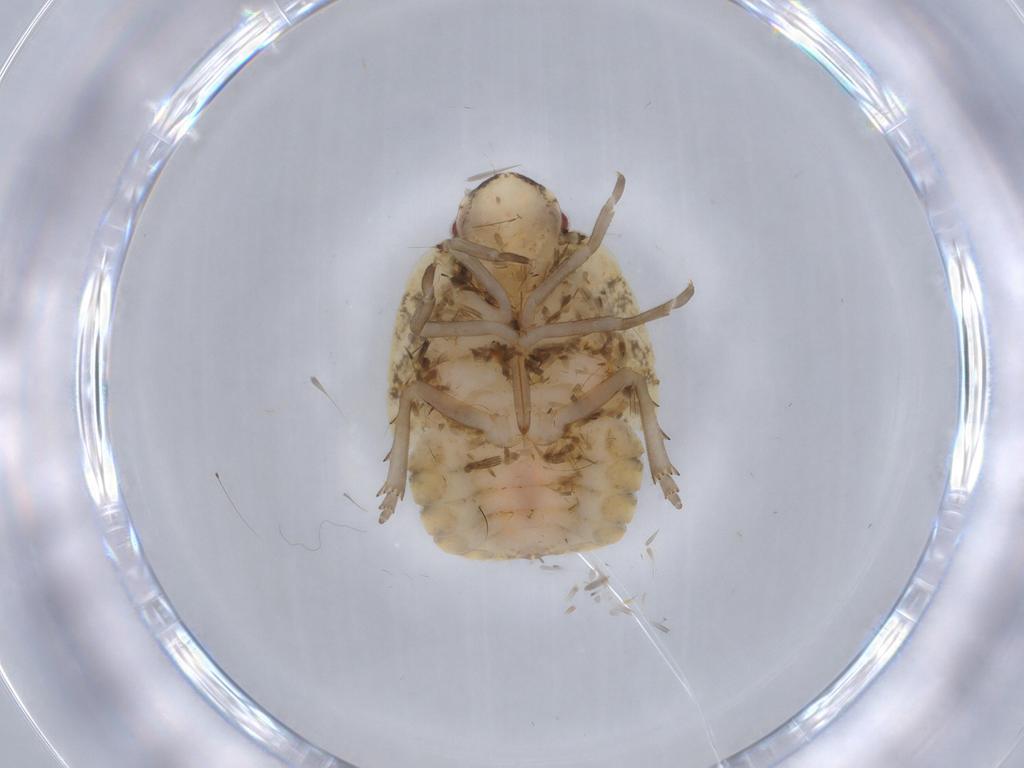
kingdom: Animalia
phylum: Arthropoda
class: Insecta
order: Hemiptera
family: Flatidae
